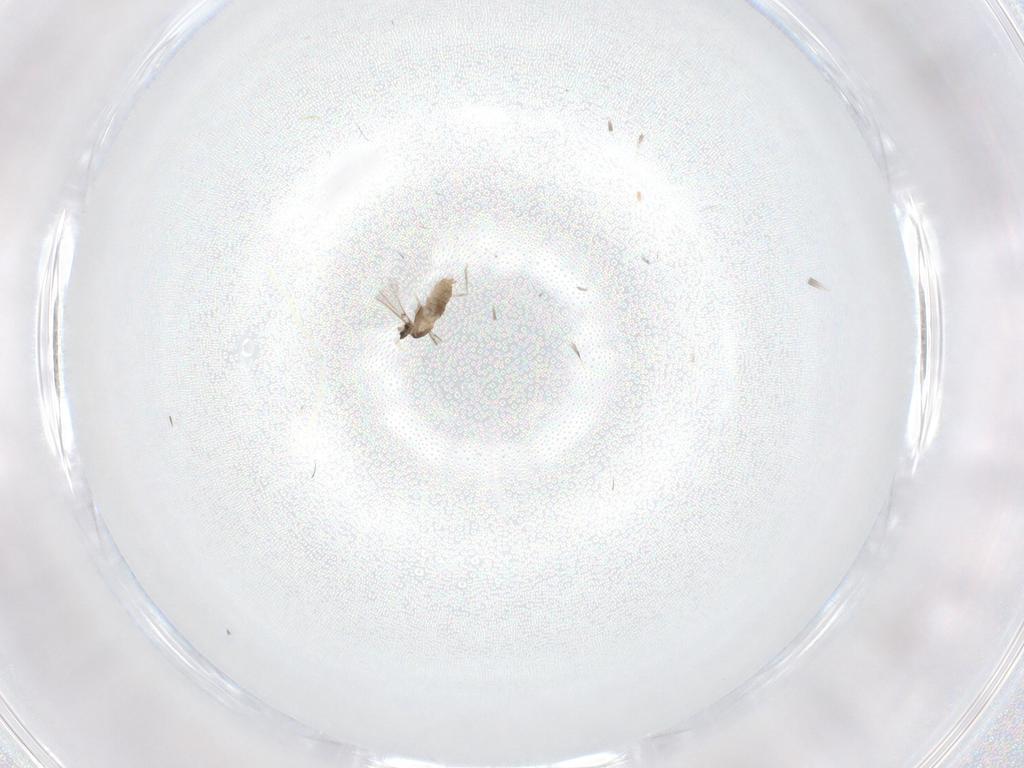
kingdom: Animalia
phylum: Arthropoda
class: Insecta
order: Diptera
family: Cecidomyiidae
